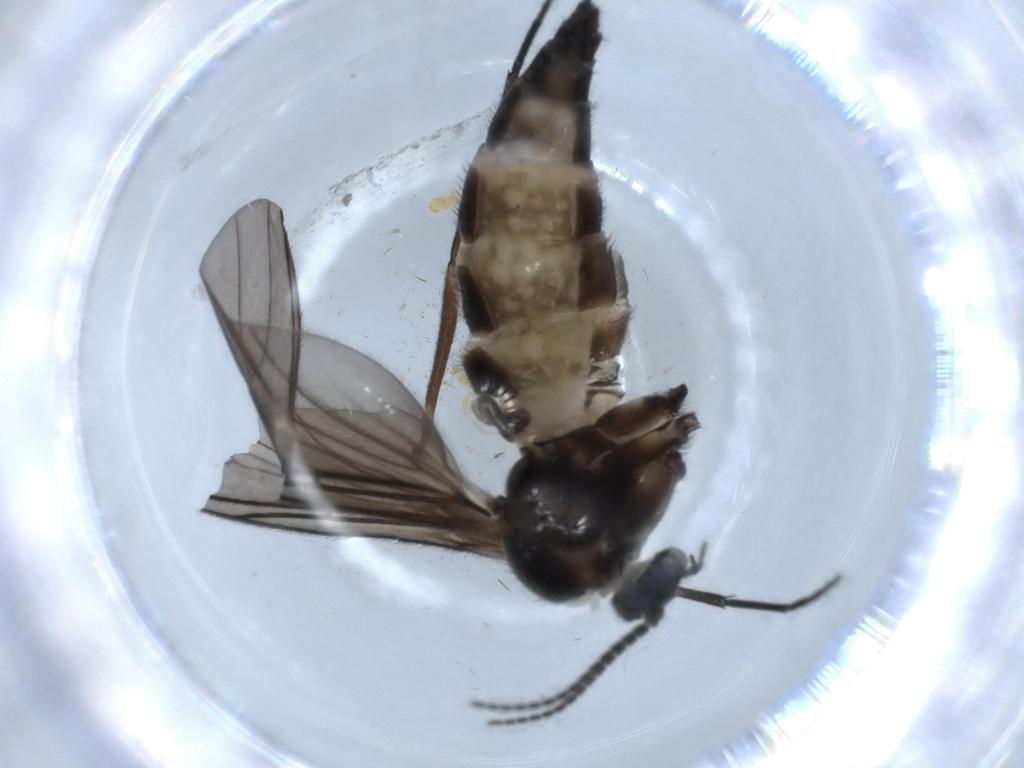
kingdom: Animalia
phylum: Arthropoda
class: Insecta
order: Diptera
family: Sciaridae
